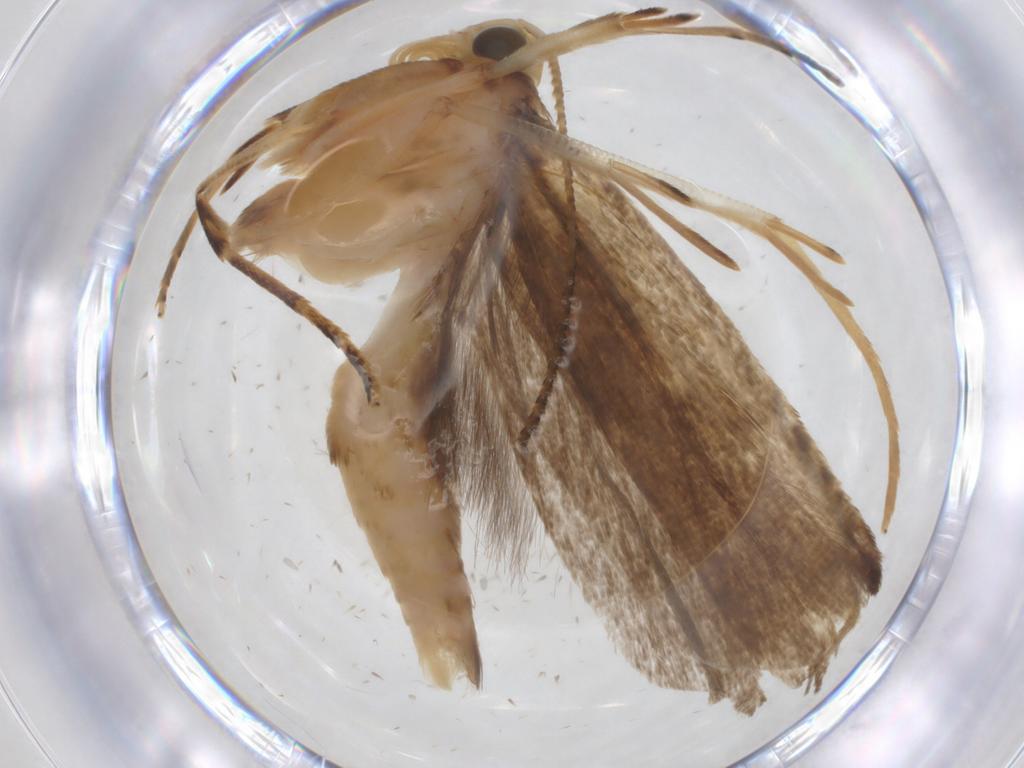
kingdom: Animalia
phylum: Arthropoda
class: Insecta
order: Lepidoptera
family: Gelechiidae
